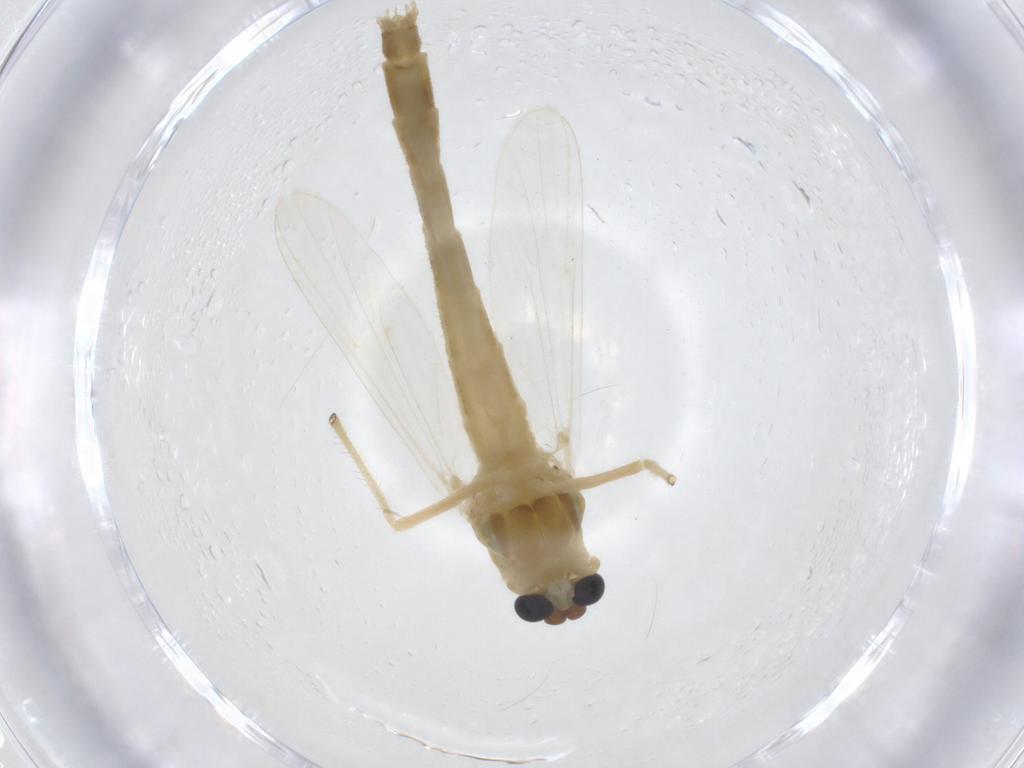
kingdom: Animalia
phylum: Arthropoda
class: Insecta
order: Diptera
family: Chironomidae
